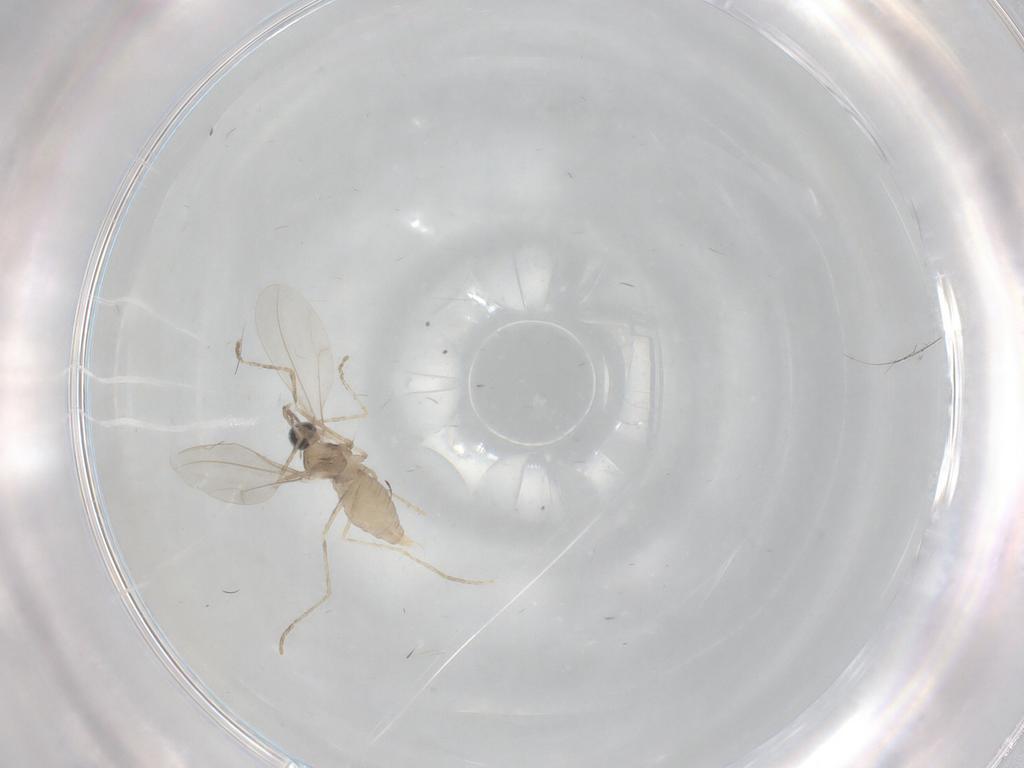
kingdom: Animalia
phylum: Arthropoda
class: Insecta
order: Diptera
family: Cecidomyiidae
